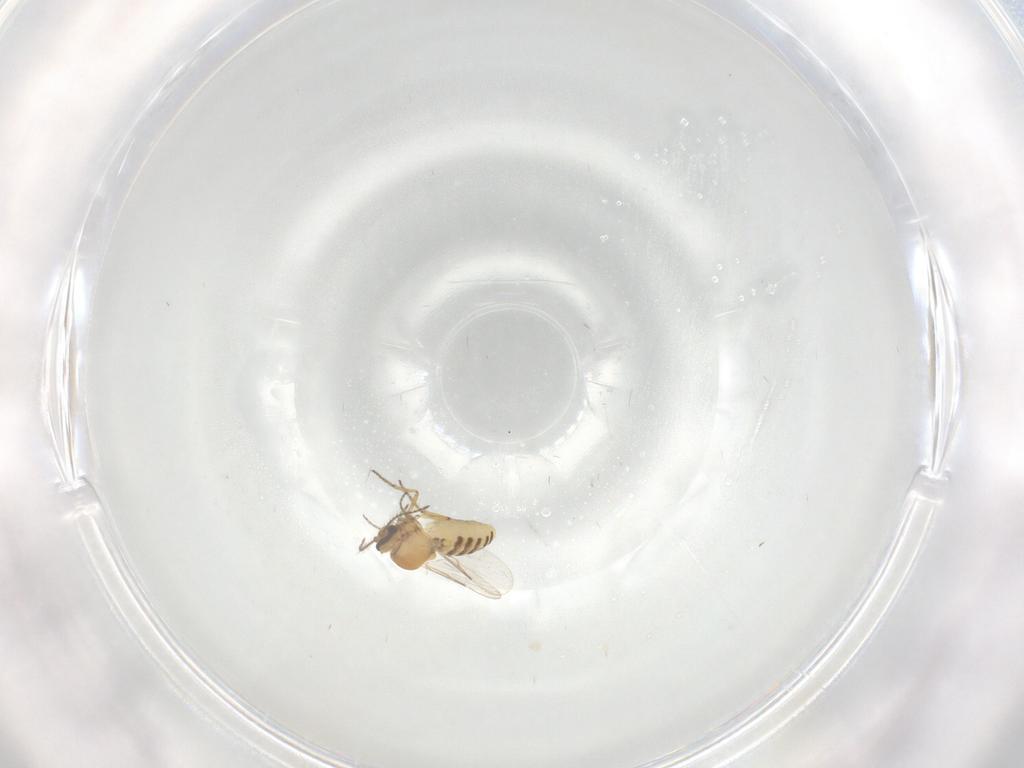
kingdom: Animalia
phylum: Arthropoda
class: Insecta
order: Diptera
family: Ceratopogonidae
